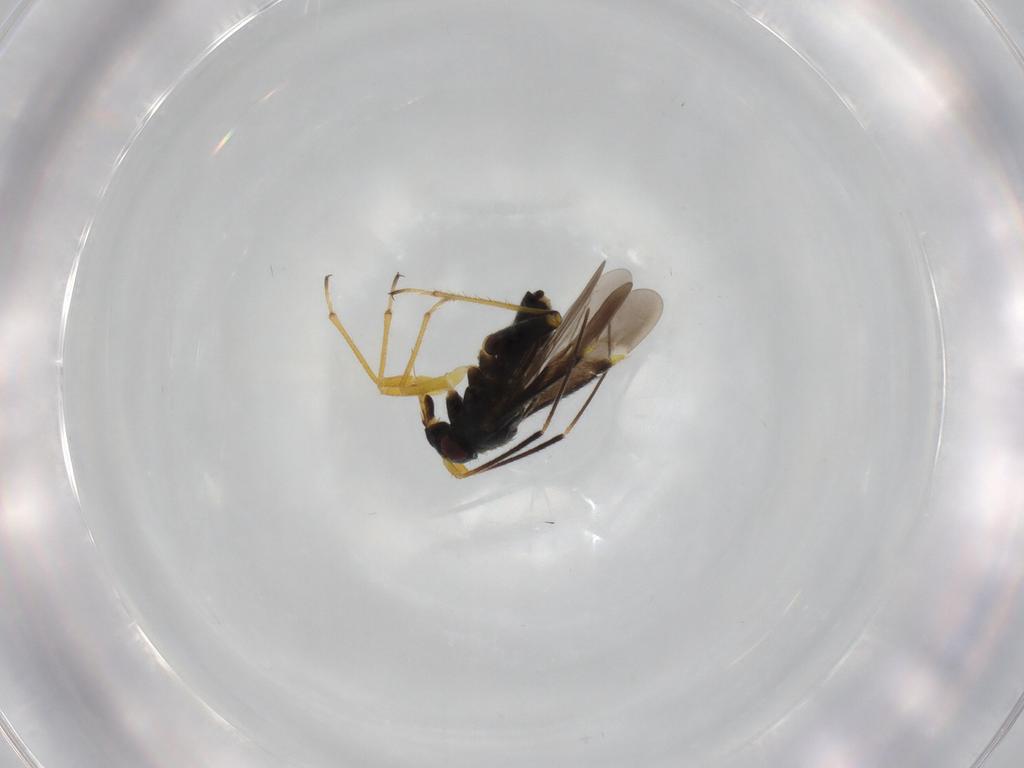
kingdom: Animalia
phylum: Arthropoda
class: Insecta
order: Hemiptera
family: Miridae
